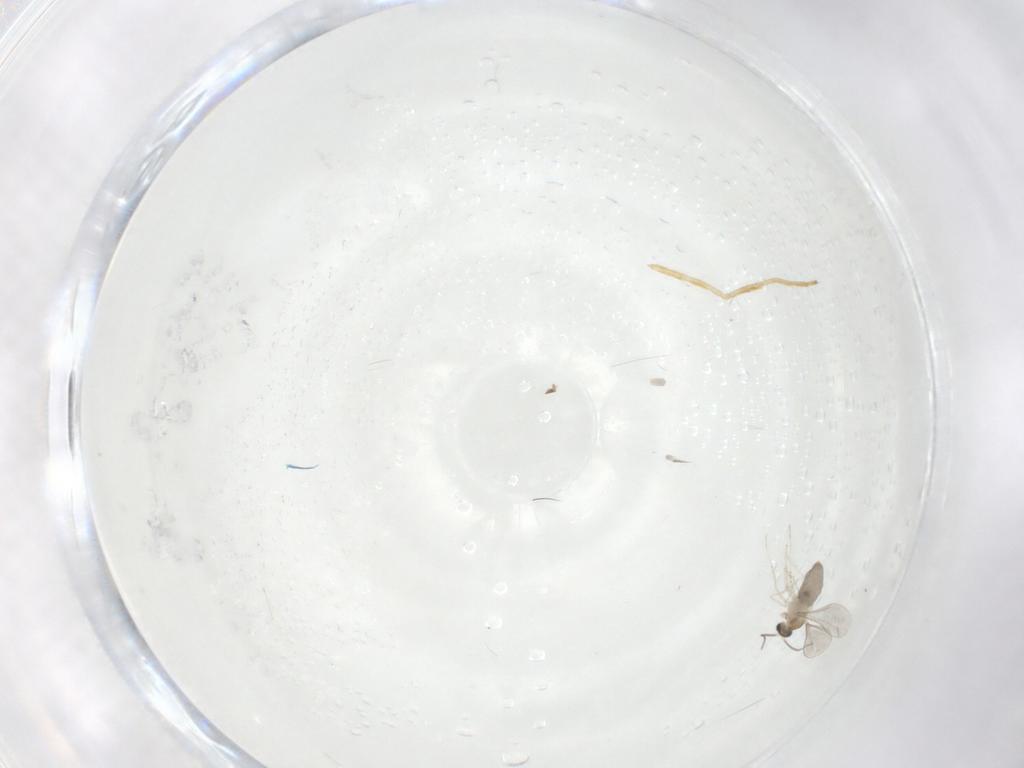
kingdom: Animalia
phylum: Arthropoda
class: Insecta
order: Diptera
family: Chironomidae
